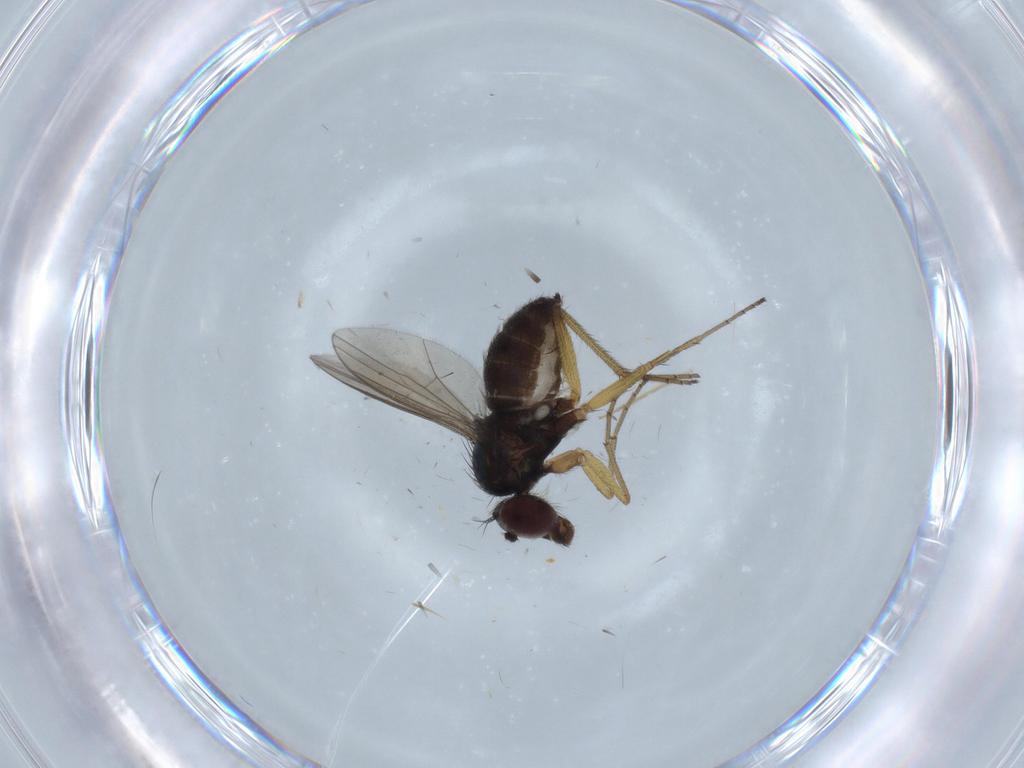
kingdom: Animalia
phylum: Arthropoda
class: Insecta
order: Diptera
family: Dolichopodidae
